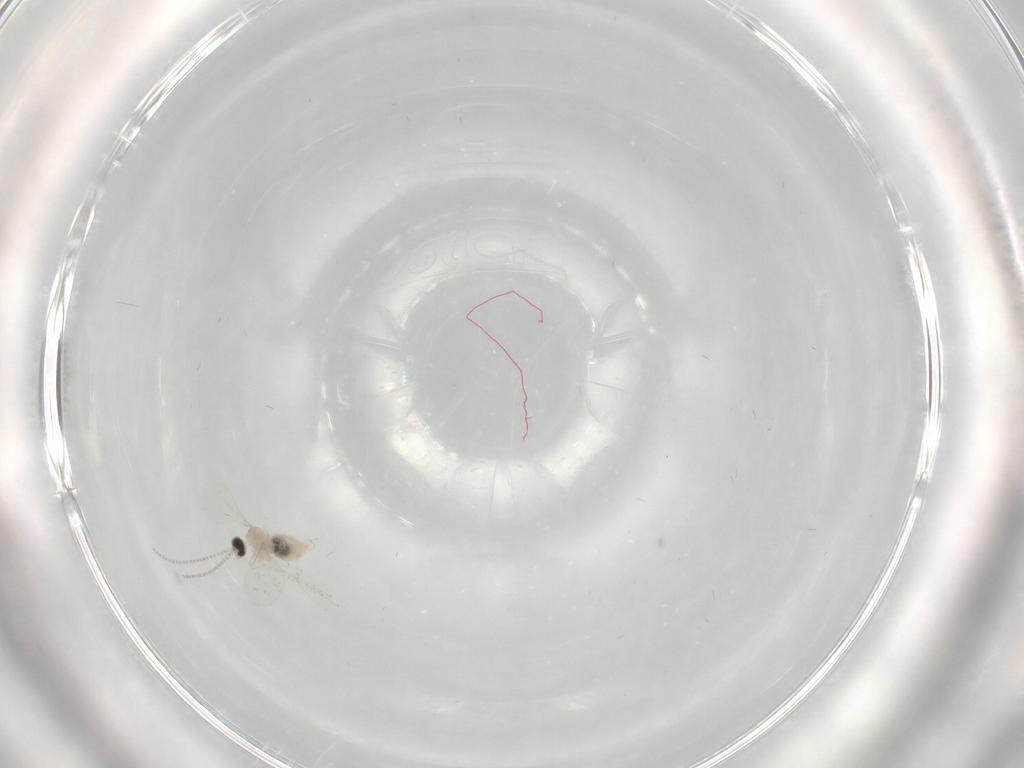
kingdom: Animalia
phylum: Arthropoda
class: Insecta
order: Diptera
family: Cecidomyiidae
